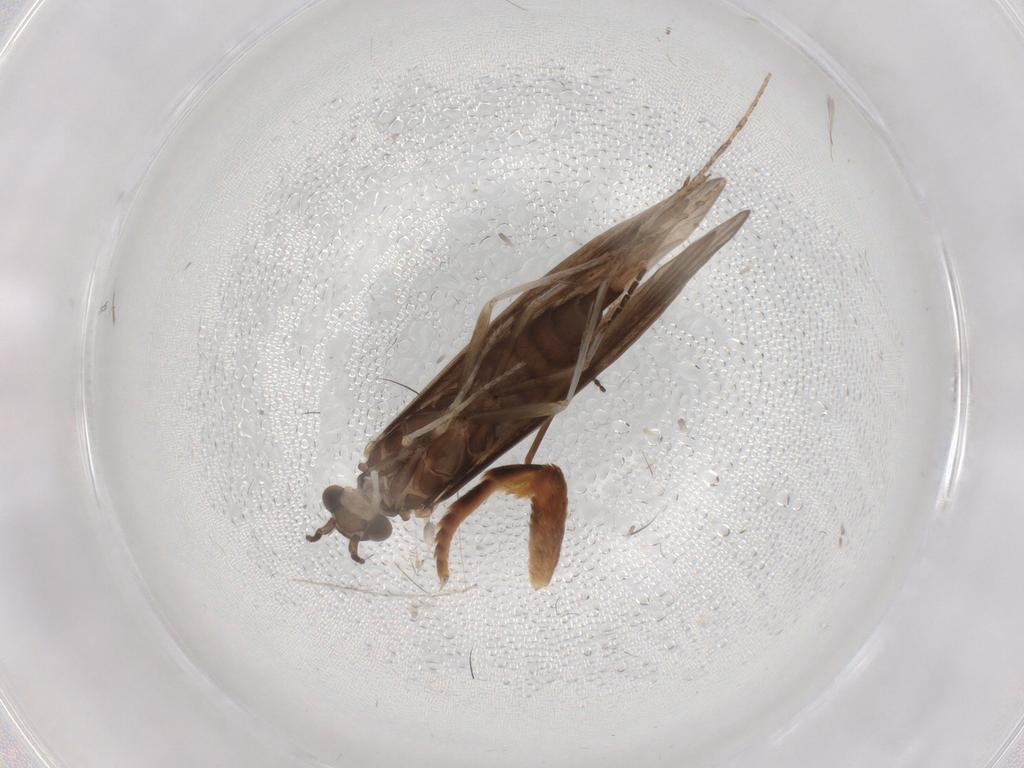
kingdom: Animalia
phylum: Arthropoda
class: Insecta
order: Trichoptera
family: Xiphocentronidae
